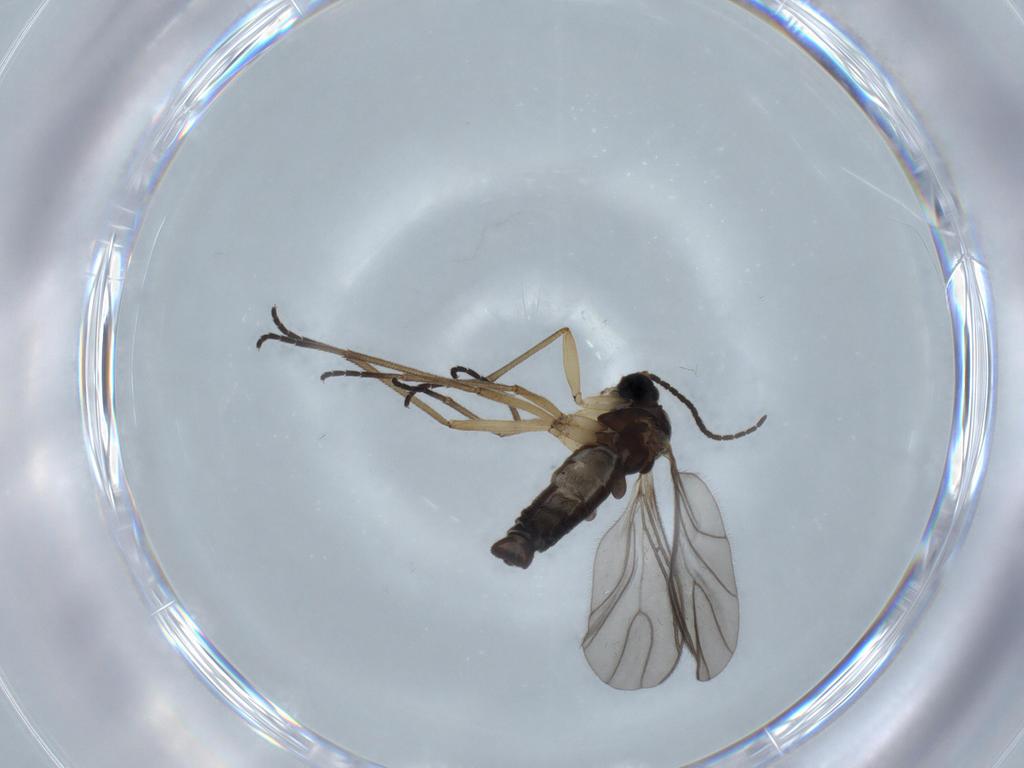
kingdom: Animalia
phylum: Arthropoda
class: Insecta
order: Diptera
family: Sciaridae
